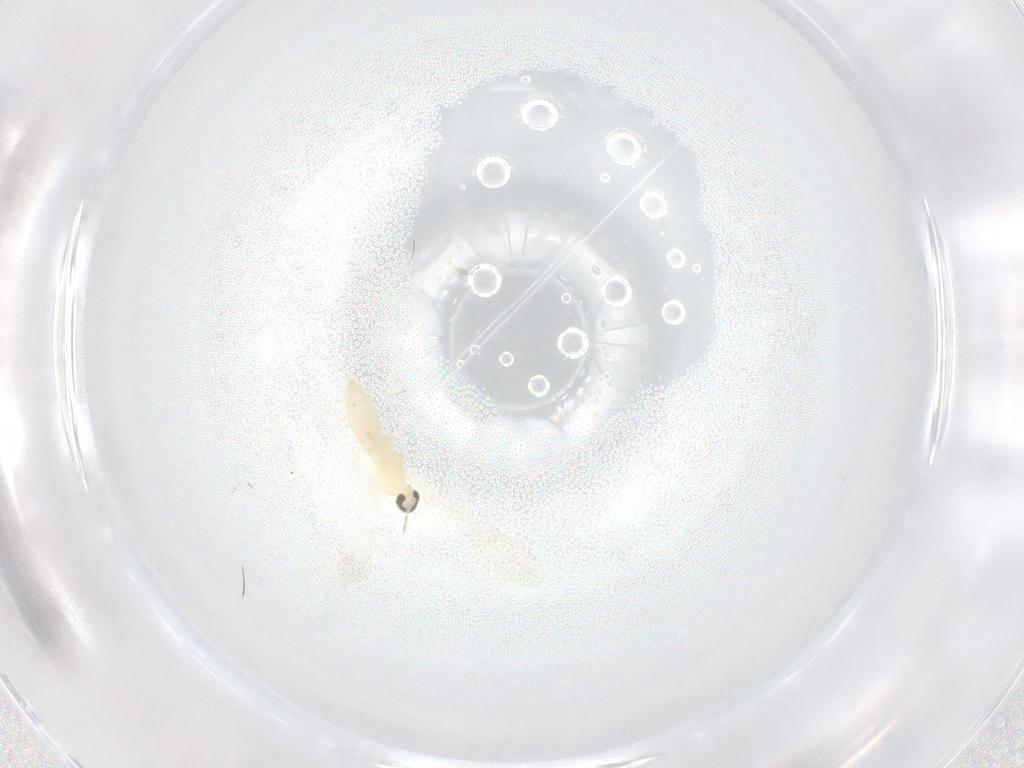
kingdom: Animalia
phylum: Arthropoda
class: Insecta
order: Diptera
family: Cecidomyiidae
